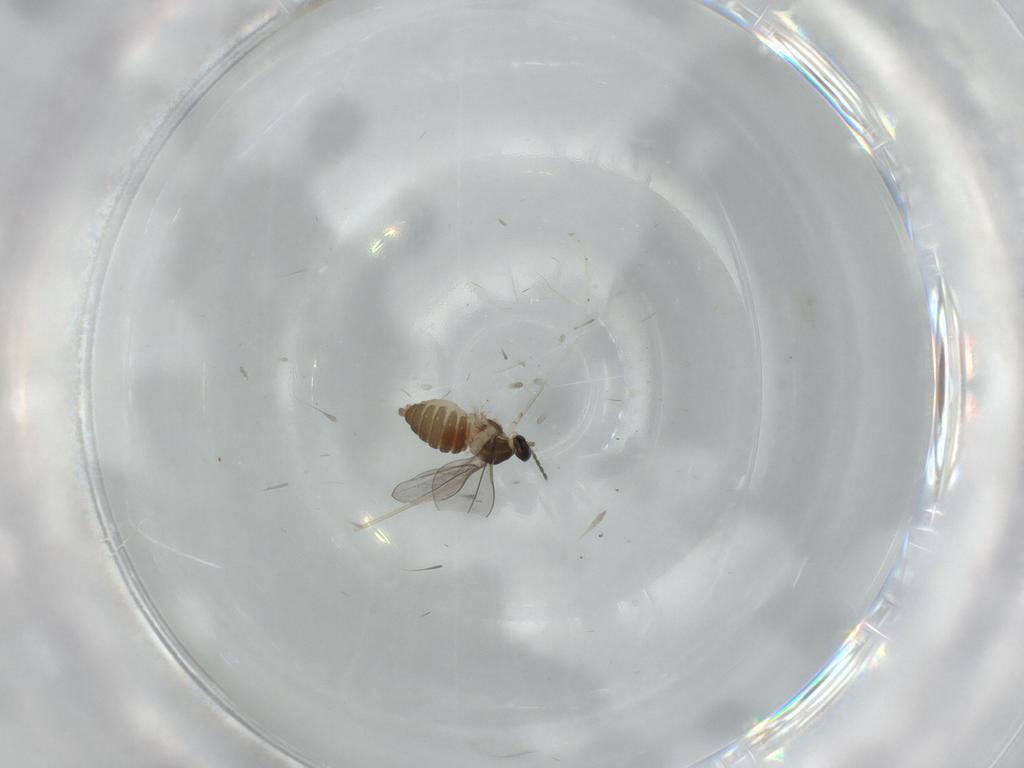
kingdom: Animalia
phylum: Arthropoda
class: Insecta
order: Diptera
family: Cecidomyiidae
